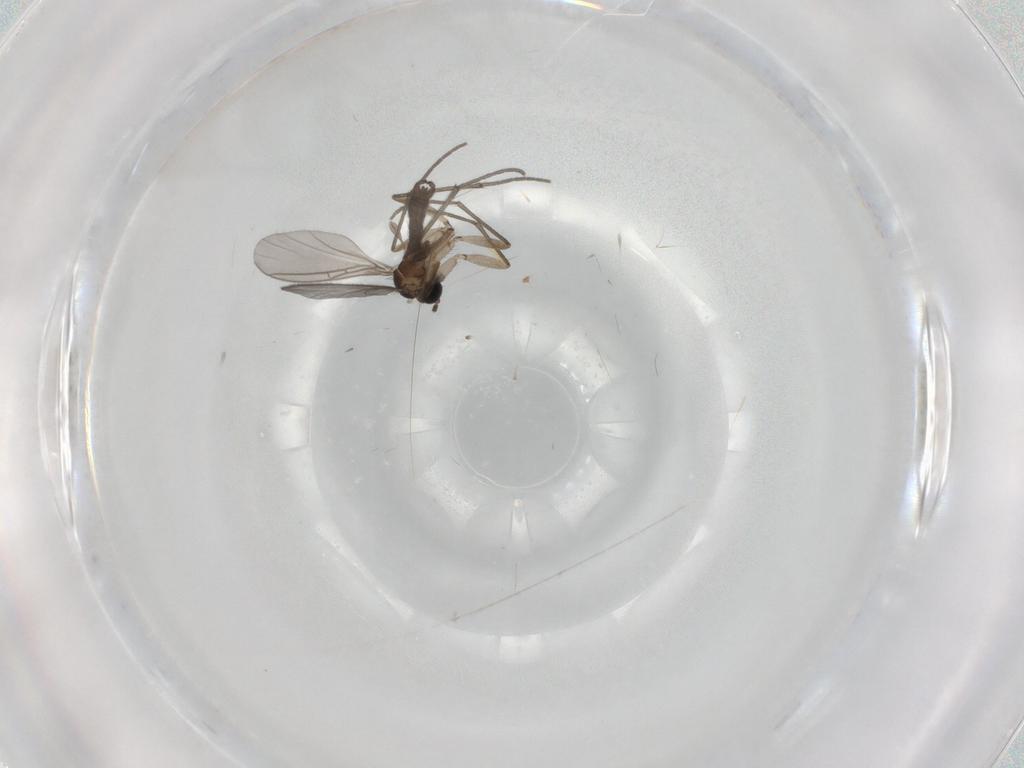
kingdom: Animalia
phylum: Arthropoda
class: Insecta
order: Diptera
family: Sciaridae
